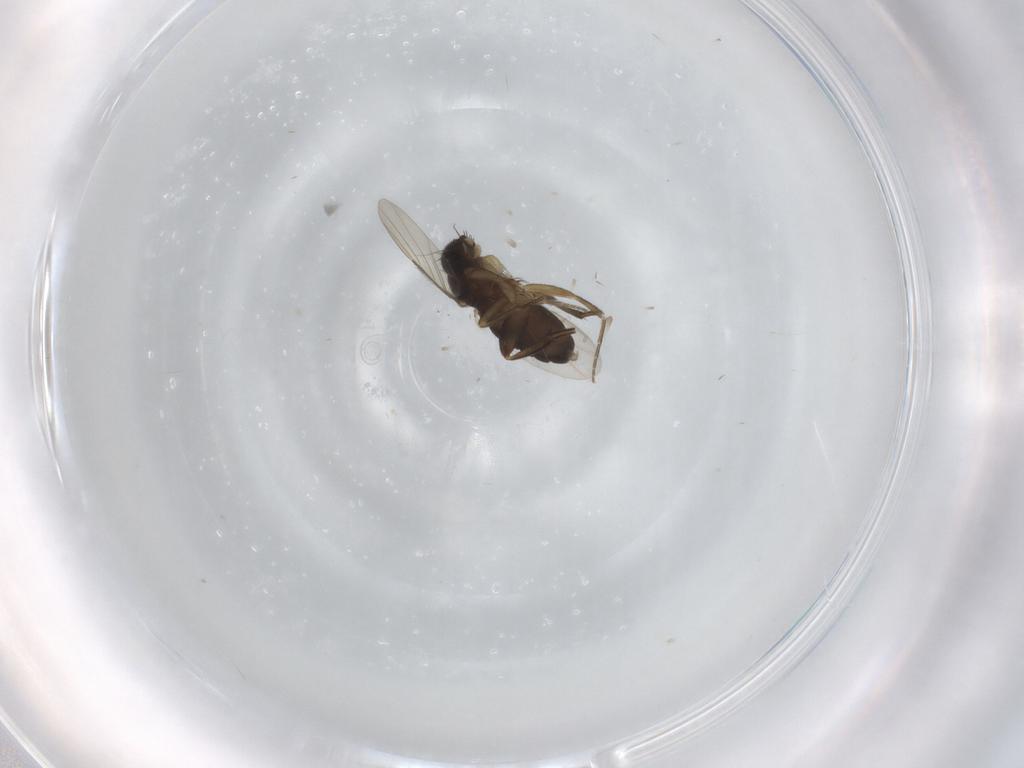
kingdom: Animalia
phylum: Arthropoda
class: Insecta
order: Diptera
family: Phoridae
